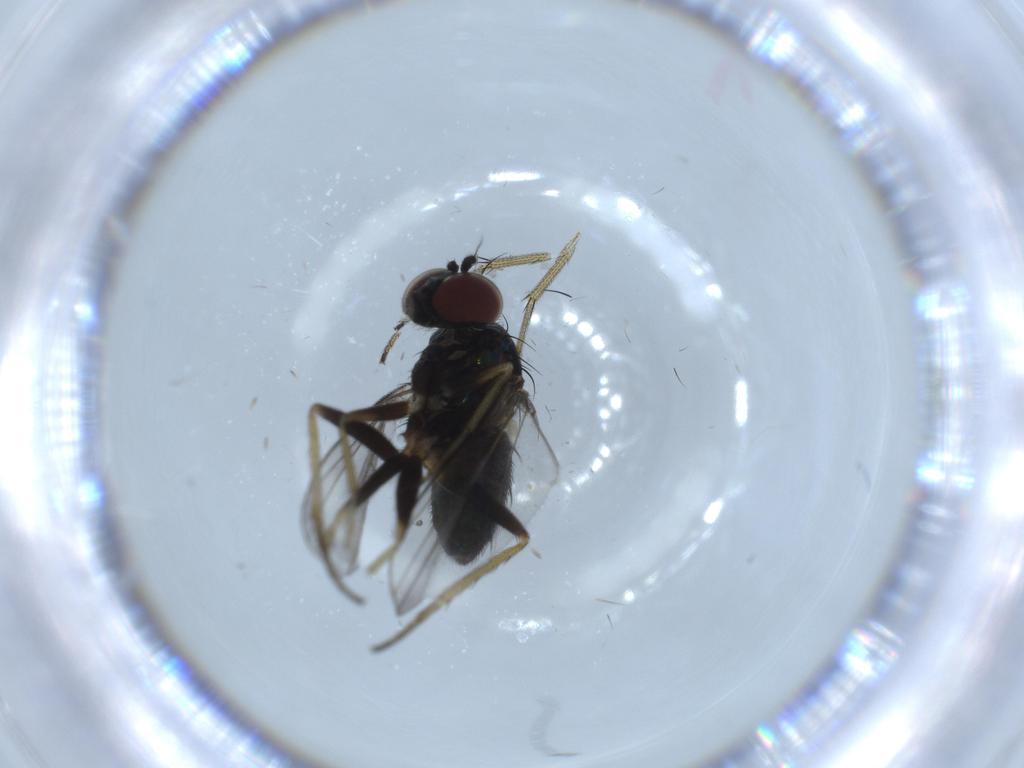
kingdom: Animalia
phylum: Arthropoda
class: Insecta
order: Diptera
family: Dolichopodidae
